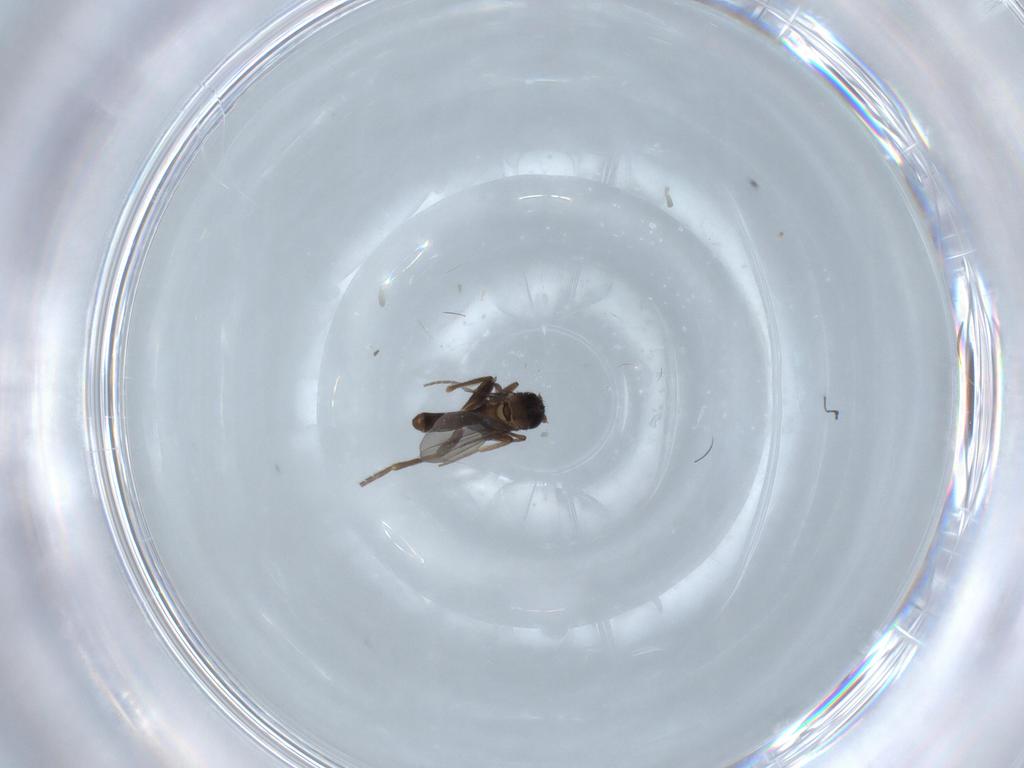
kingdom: Animalia
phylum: Arthropoda
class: Insecta
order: Diptera
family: Phoridae
